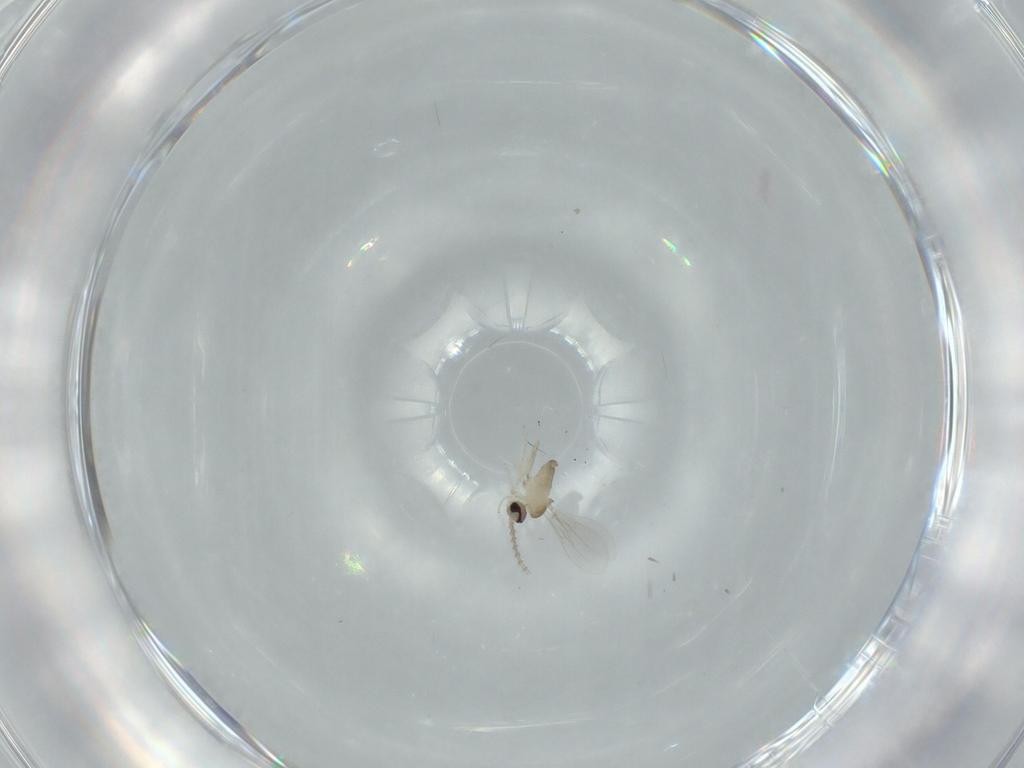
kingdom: Animalia
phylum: Arthropoda
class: Insecta
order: Diptera
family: Cecidomyiidae
